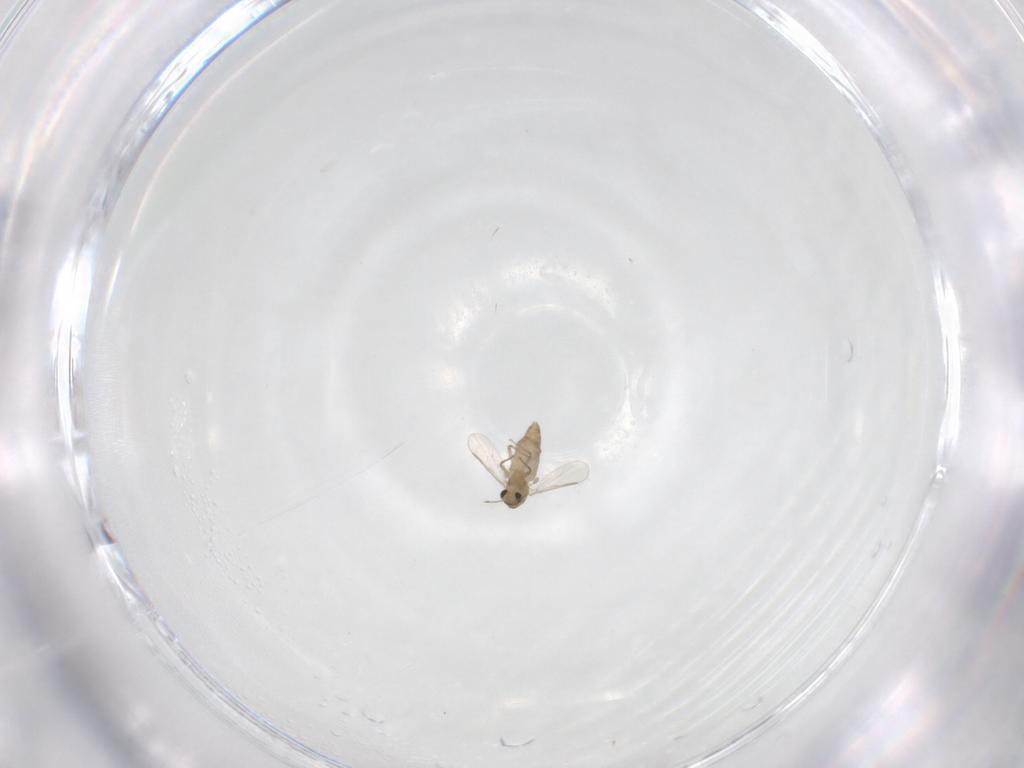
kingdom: Animalia
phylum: Arthropoda
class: Insecta
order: Diptera
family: Chironomidae
